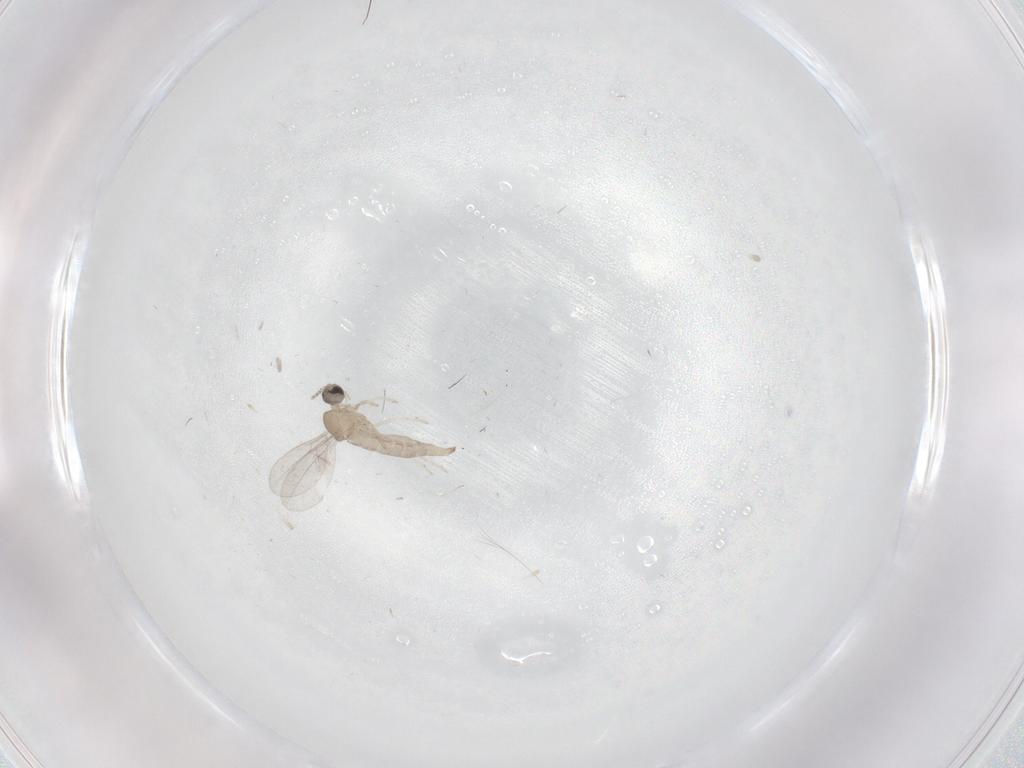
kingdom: Animalia
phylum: Arthropoda
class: Insecta
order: Diptera
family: Cecidomyiidae
